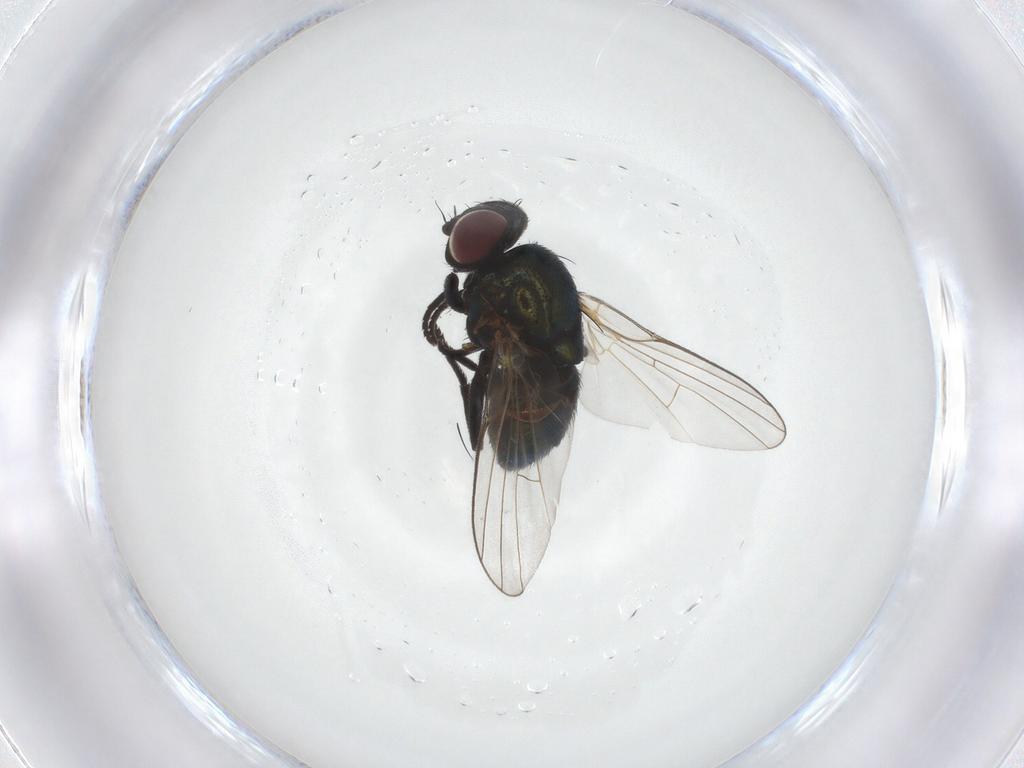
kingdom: Animalia
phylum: Arthropoda
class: Insecta
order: Diptera
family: Agromyzidae
